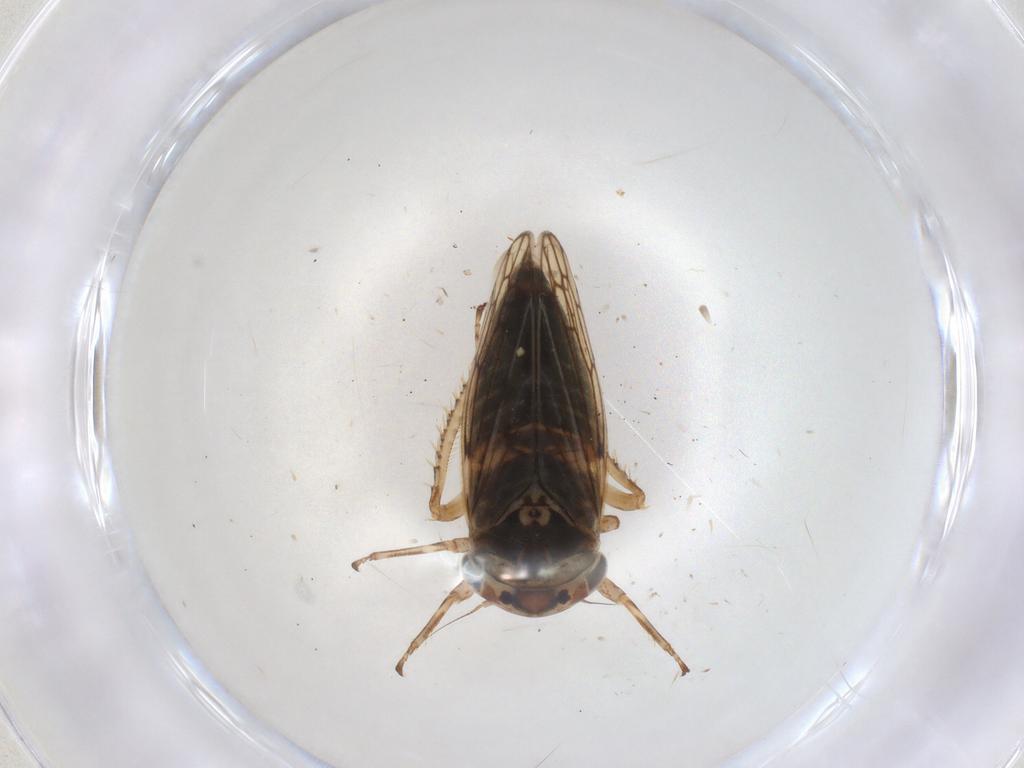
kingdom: Animalia
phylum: Arthropoda
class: Insecta
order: Hemiptera
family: Cicadellidae
